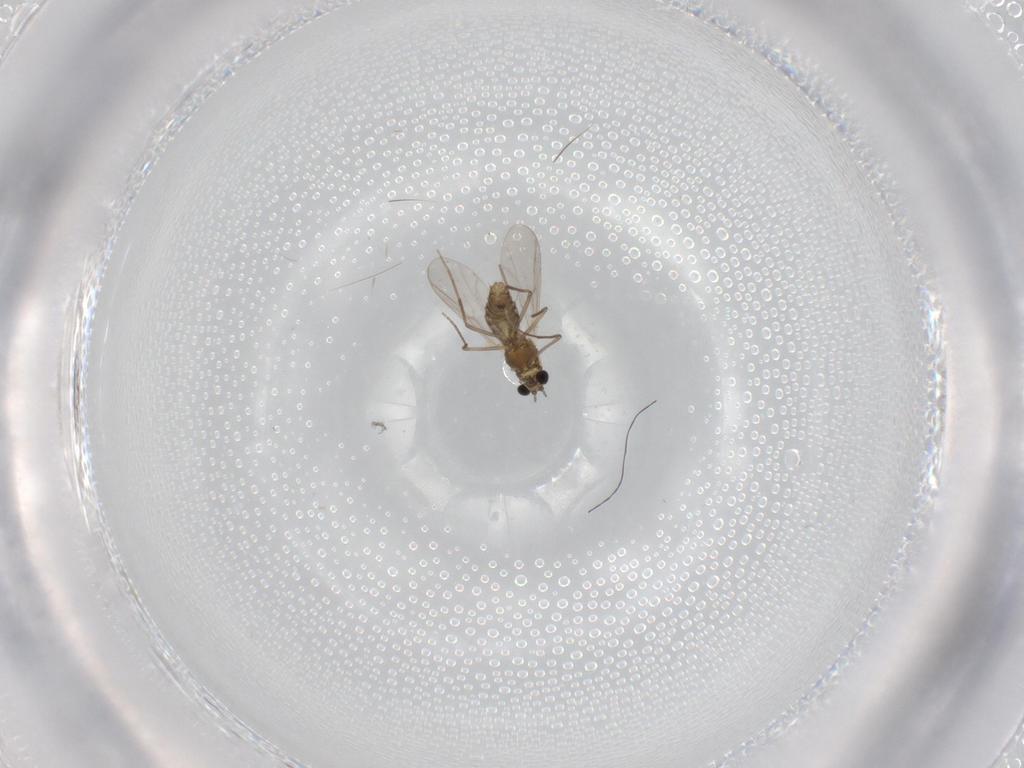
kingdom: Animalia
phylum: Arthropoda
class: Insecta
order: Diptera
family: Chironomidae
